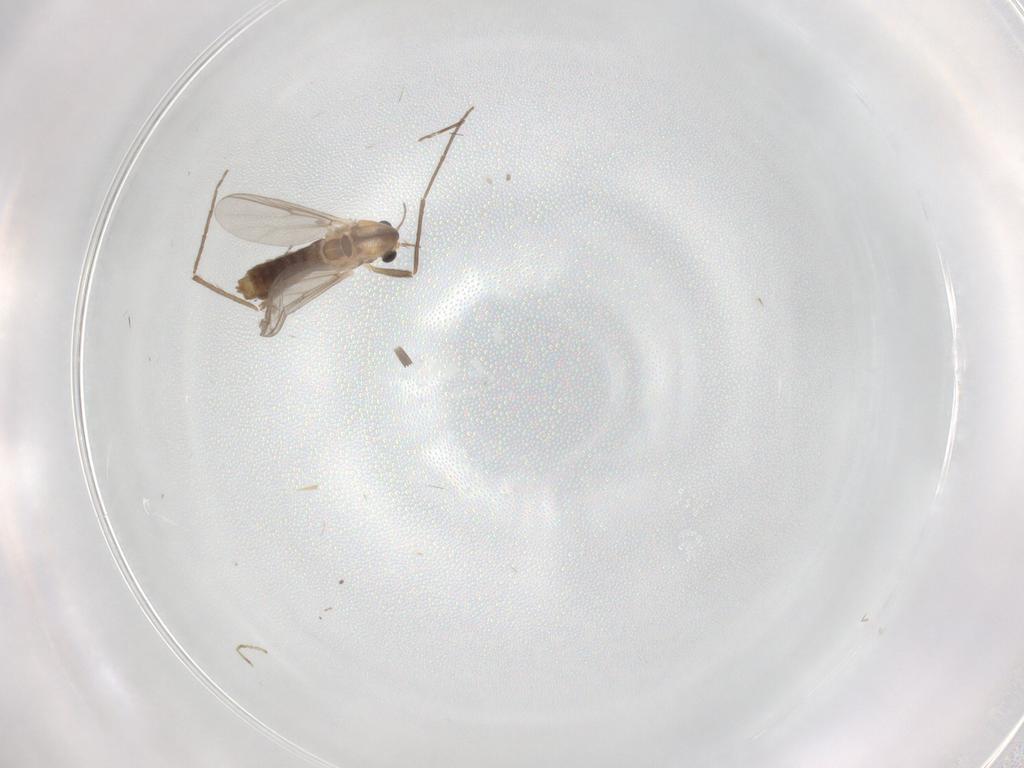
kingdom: Animalia
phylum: Arthropoda
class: Insecta
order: Diptera
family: Chironomidae
